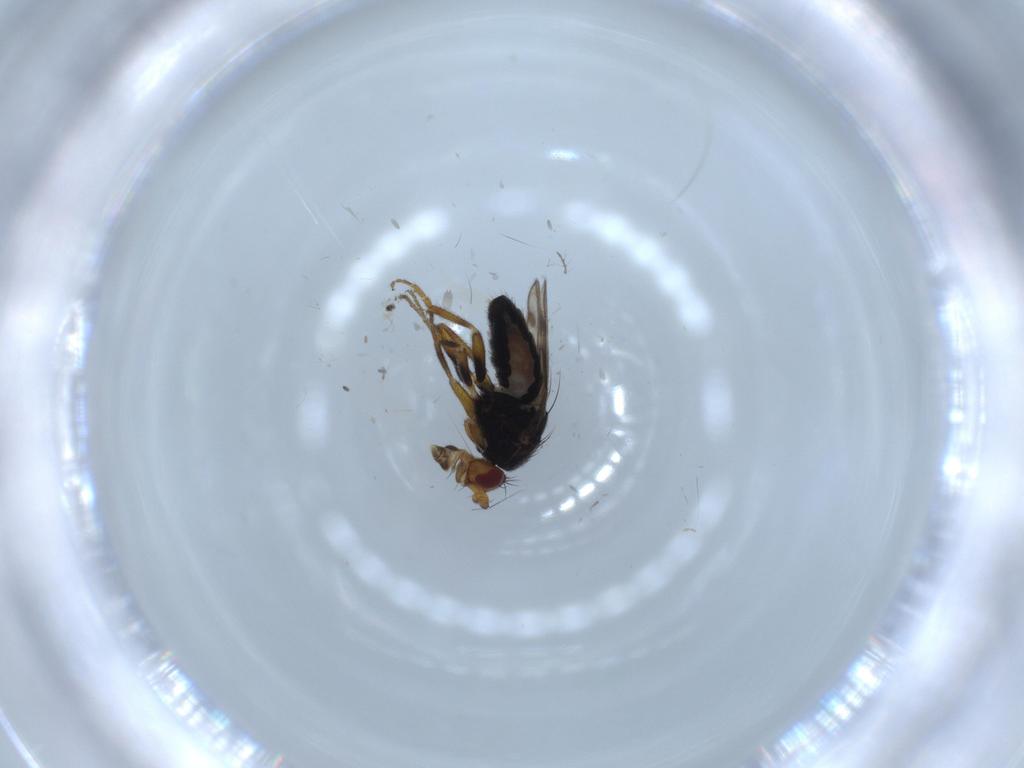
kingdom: Animalia
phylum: Arthropoda
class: Insecta
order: Diptera
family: Sphaeroceridae
